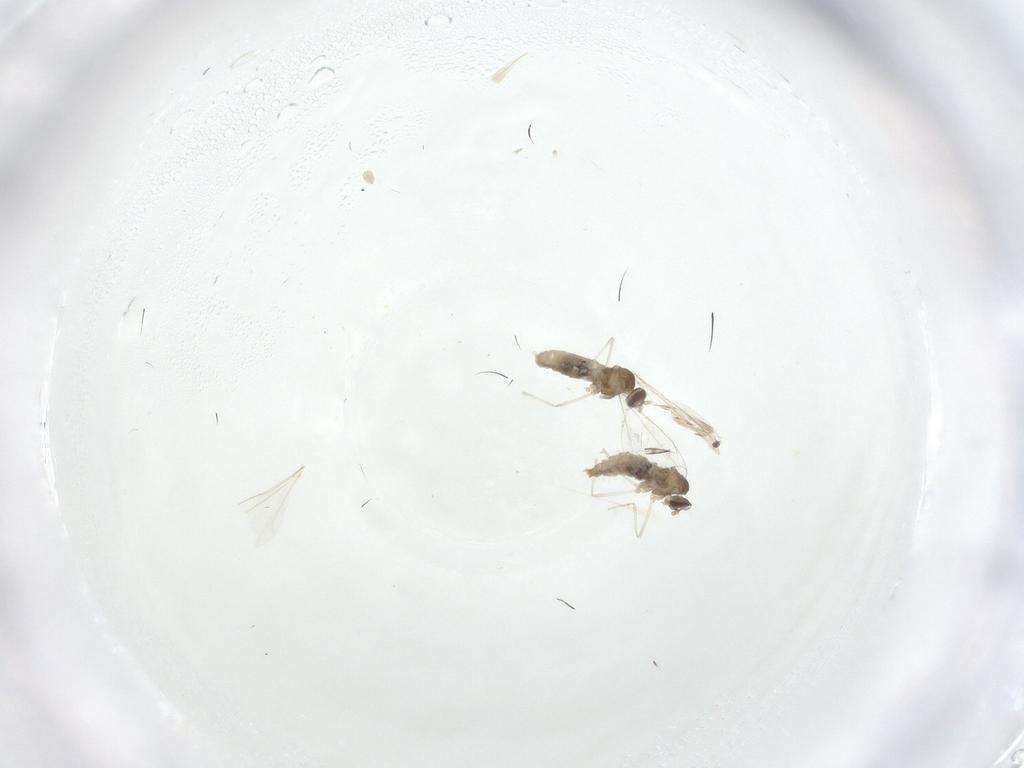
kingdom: Animalia
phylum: Arthropoda
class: Insecta
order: Diptera
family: Cecidomyiidae
